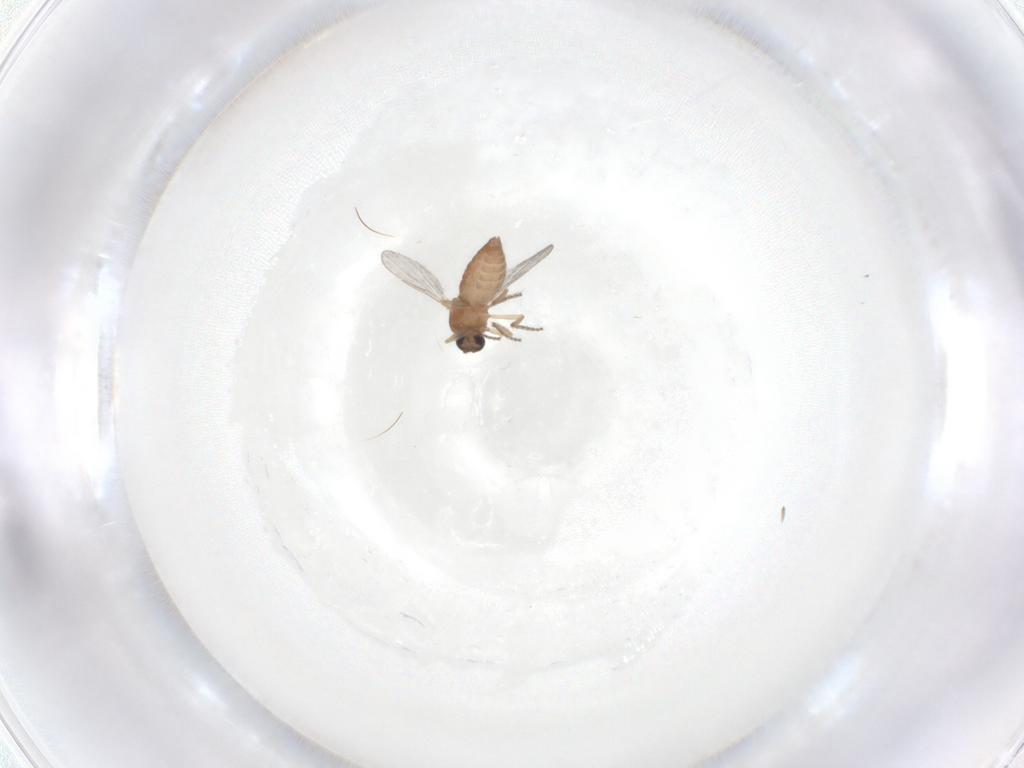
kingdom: Animalia
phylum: Arthropoda
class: Insecta
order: Diptera
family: Ceratopogonidae
